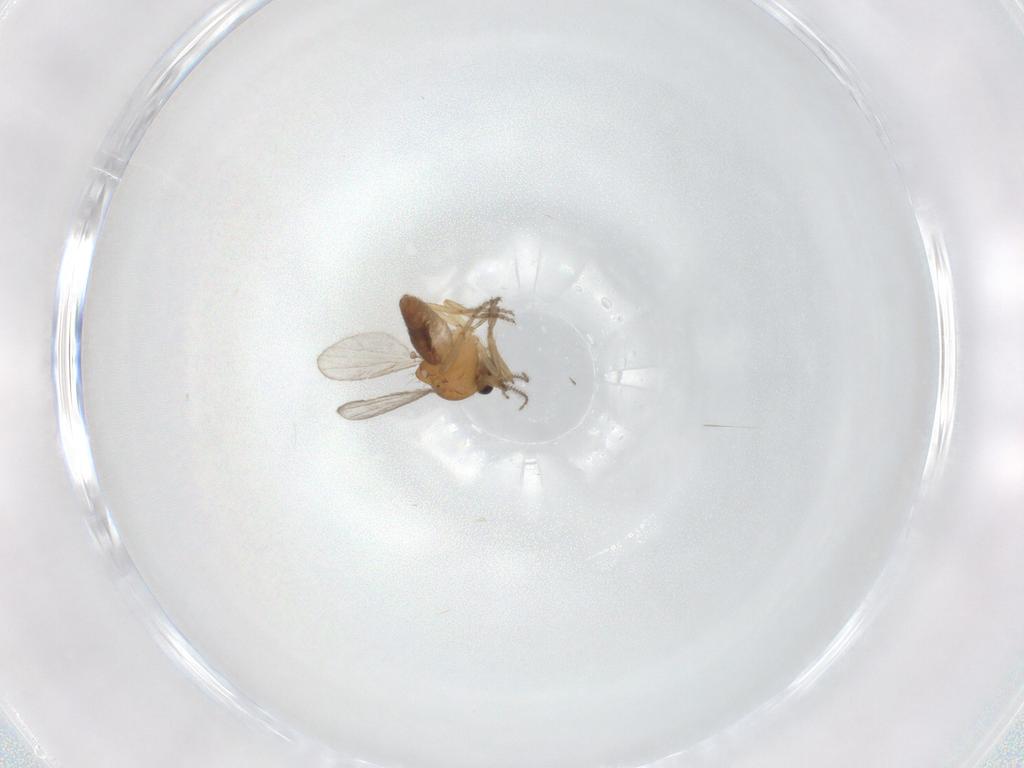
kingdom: Animalia
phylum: Arthropoda
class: Insecta
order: Diptera
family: Ceratopogonidae
